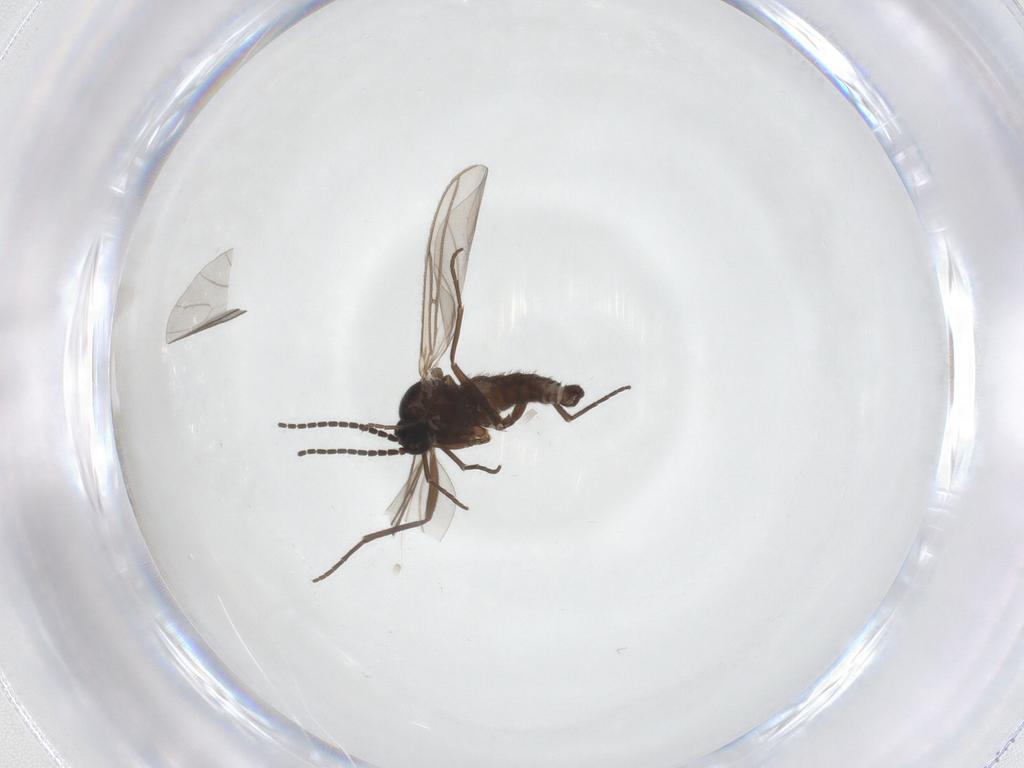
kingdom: Animalia
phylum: Arthropoda
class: Insecta
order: Diptera
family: Sciaridae
